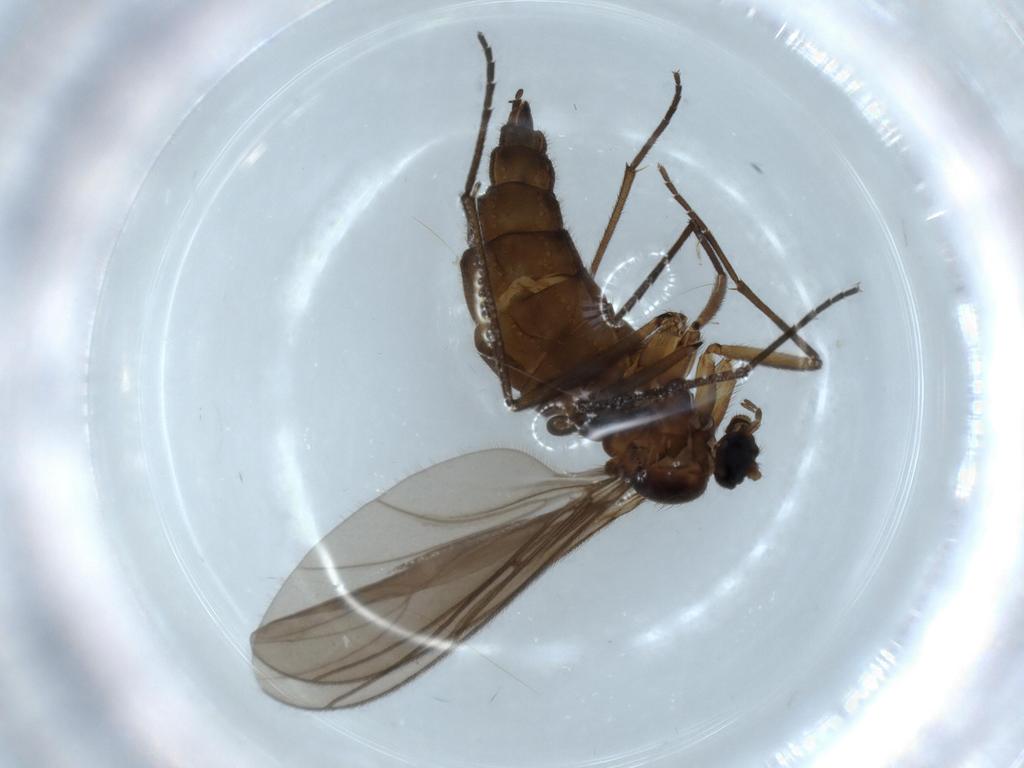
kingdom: Animalia
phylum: Arthropoda
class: Insecta
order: Diptera
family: Sciaridae
